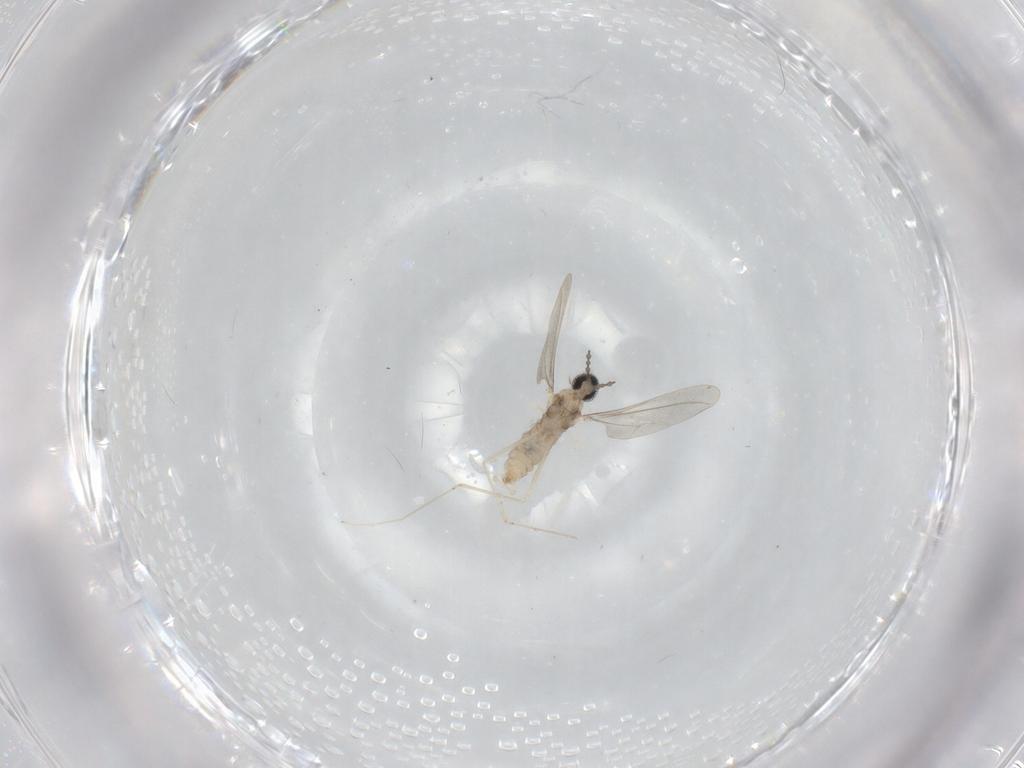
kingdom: Animalia
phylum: Arthropoda
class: Insecta
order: Diptera
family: Cecidomyiidae
